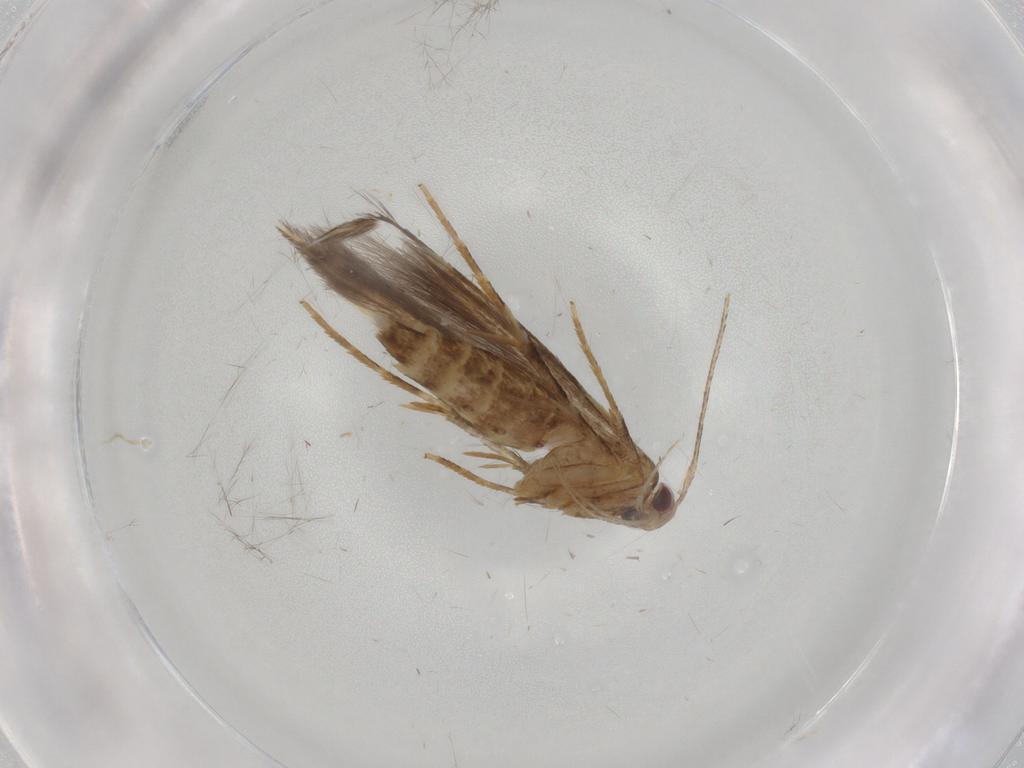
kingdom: Animalia
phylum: Arthropoda
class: Insecta
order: Lepidoptera
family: Cosmopterigidae
